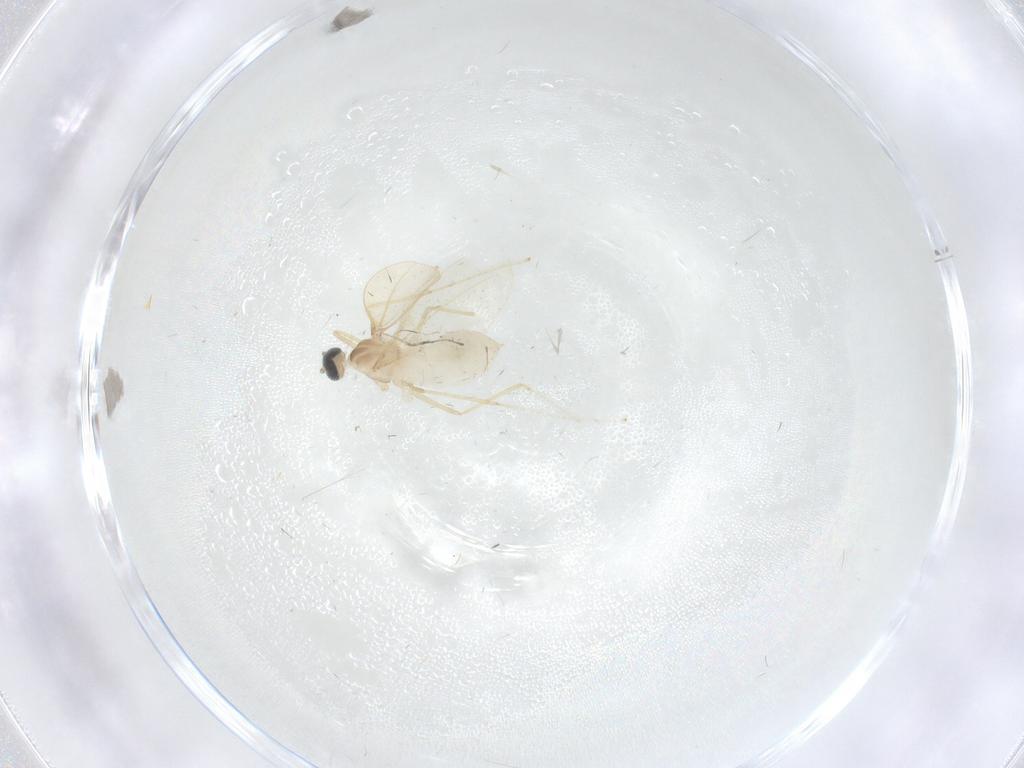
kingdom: Animalia
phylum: Arthropoda
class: Insecta
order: Diptera
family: Cecidomyiidae
